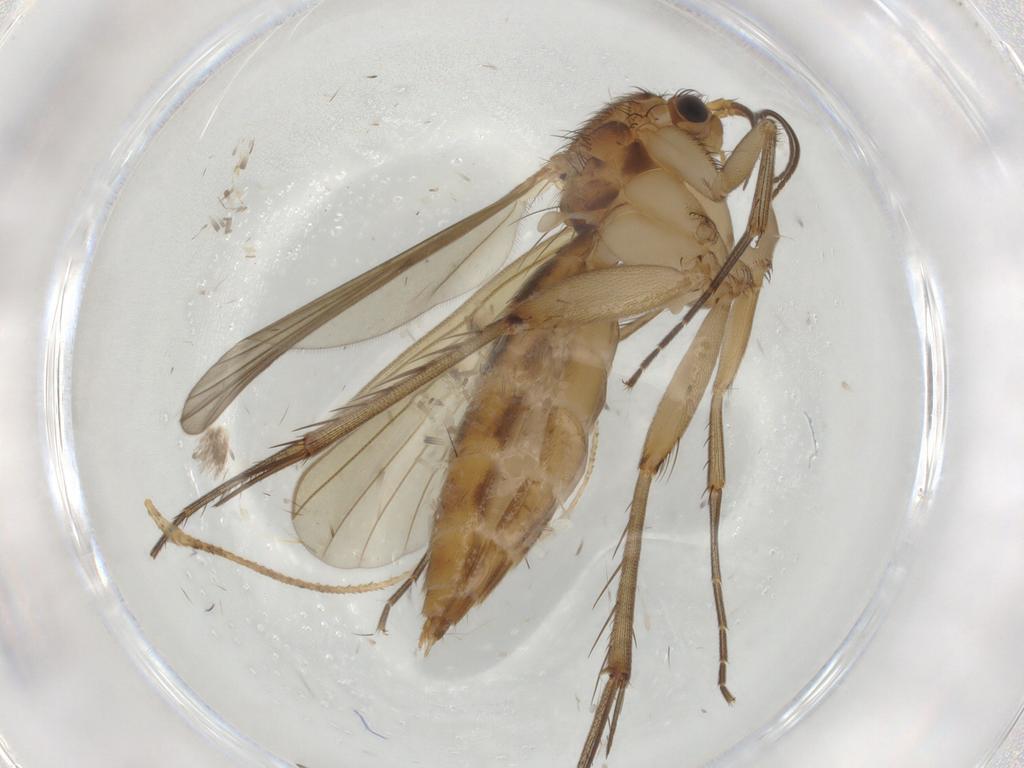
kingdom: Animalia
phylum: Arthropoda
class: Insecta
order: Diptera
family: Mycetophilidae
